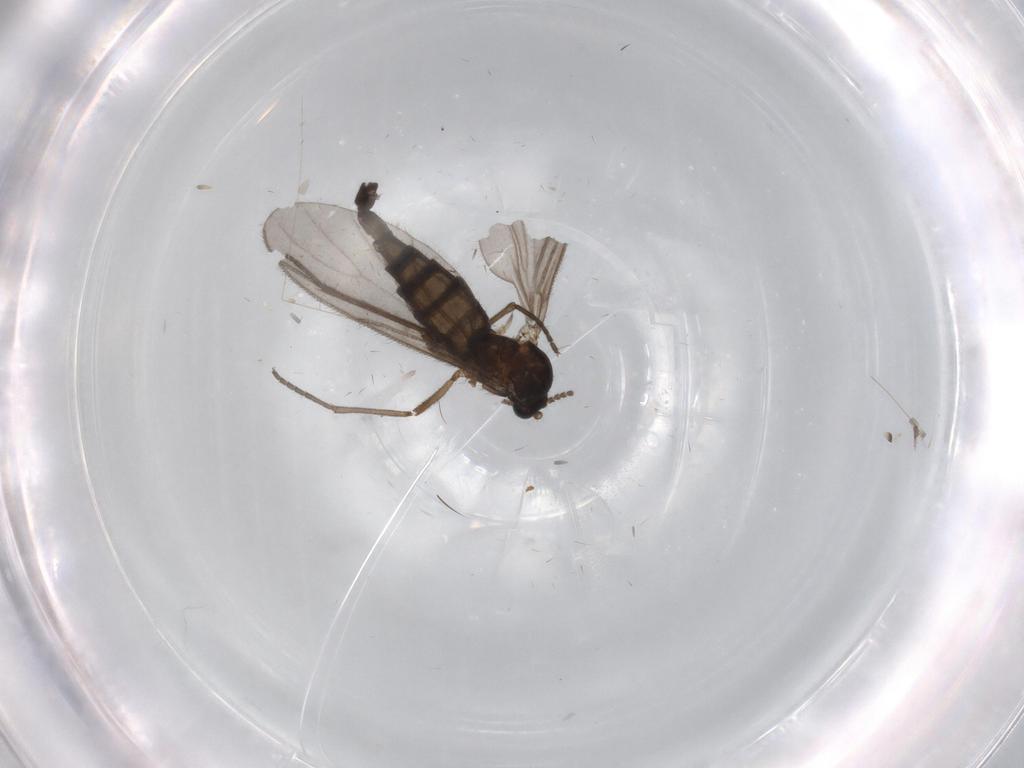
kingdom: Animalia
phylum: Arthropoda
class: Insecta
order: Diptera
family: Sciaridae
